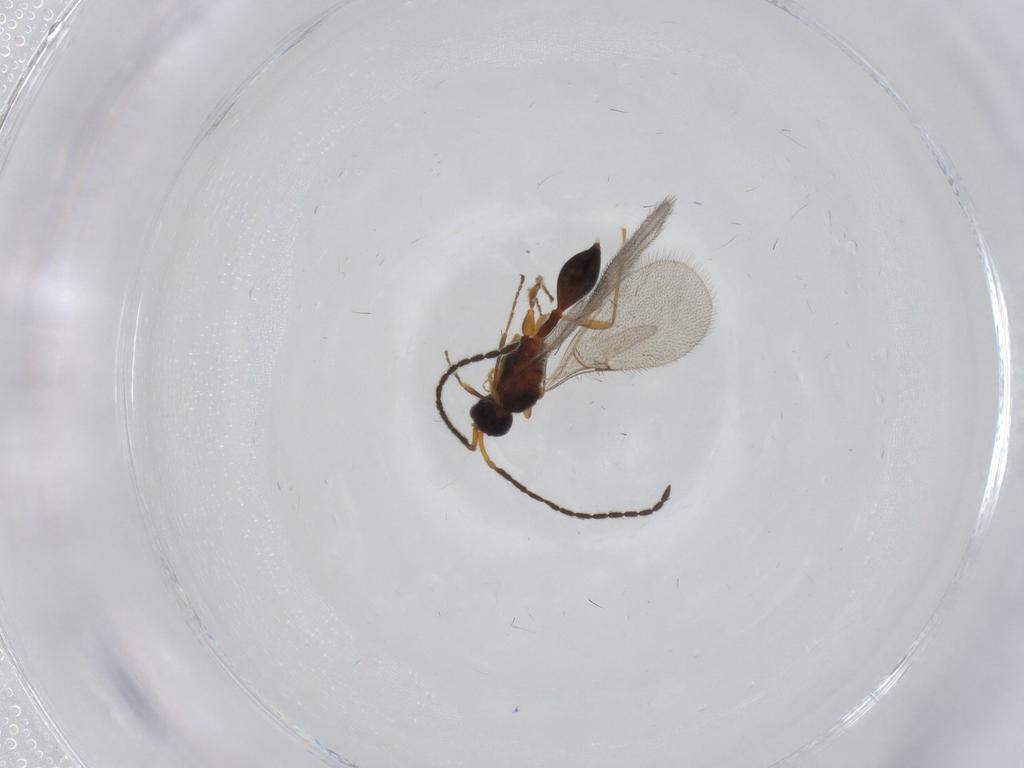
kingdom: Animalia
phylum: Arthropoda
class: Insecta
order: Hymenoptera
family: Diapriidae
